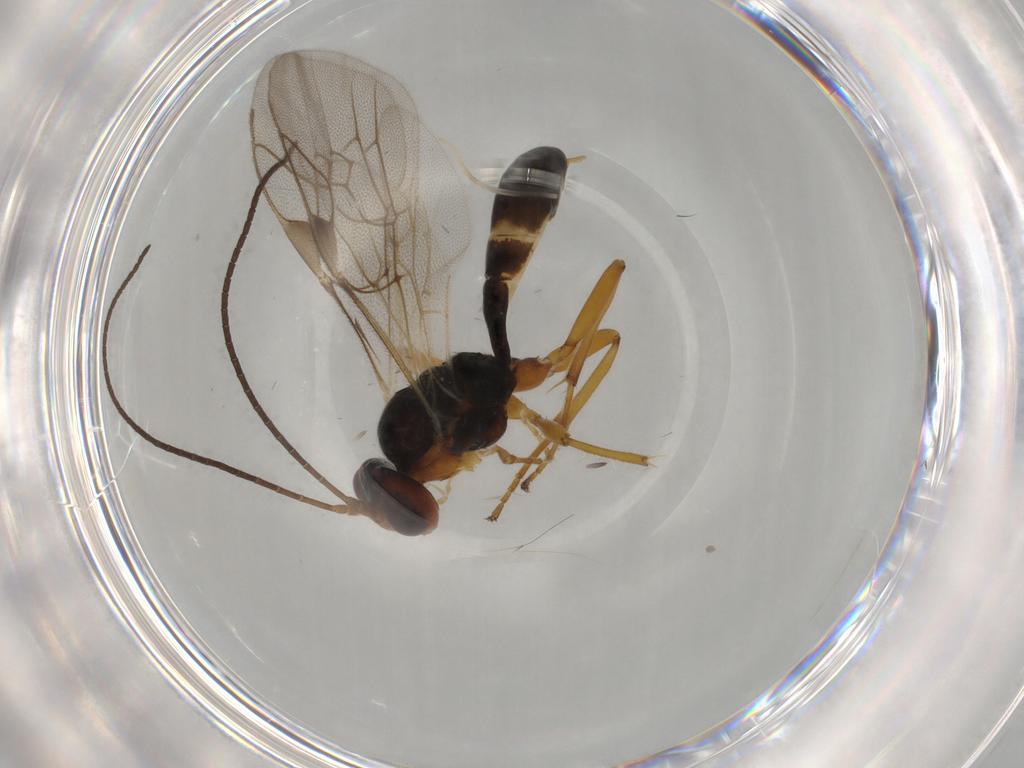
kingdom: Animalia
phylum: Arthropoda
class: Insecta
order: Hymenoptera
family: Ichneumonidae
